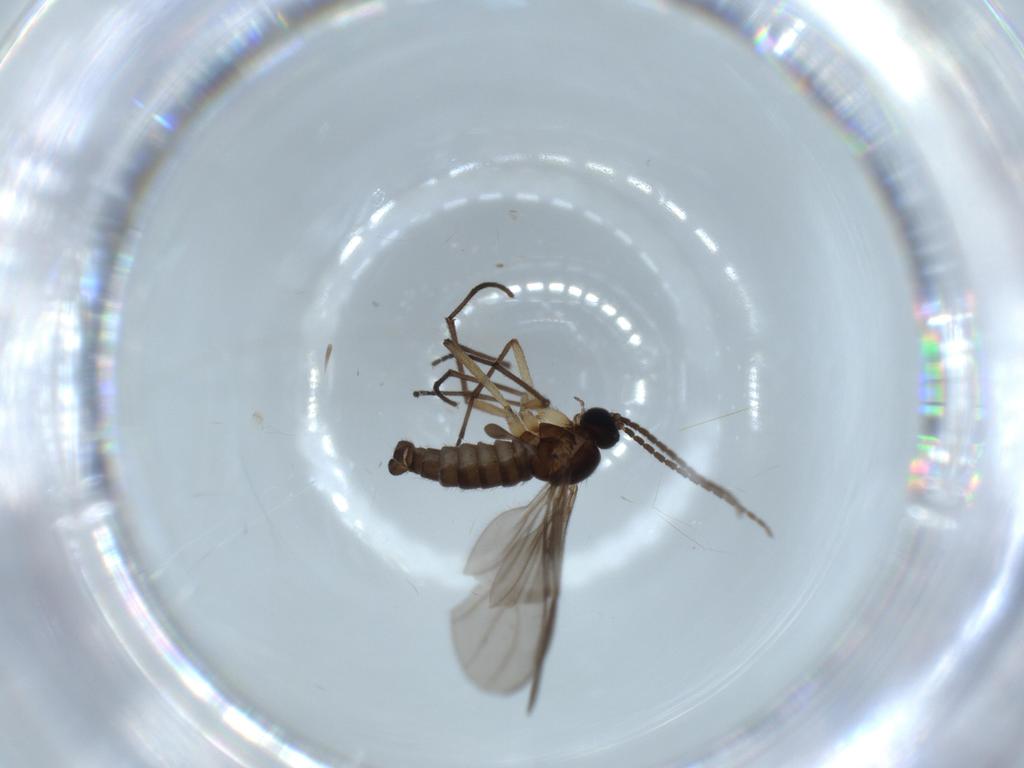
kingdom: Animalia
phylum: Arthropoda
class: Insecta
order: Diptera
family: Sciaridae
